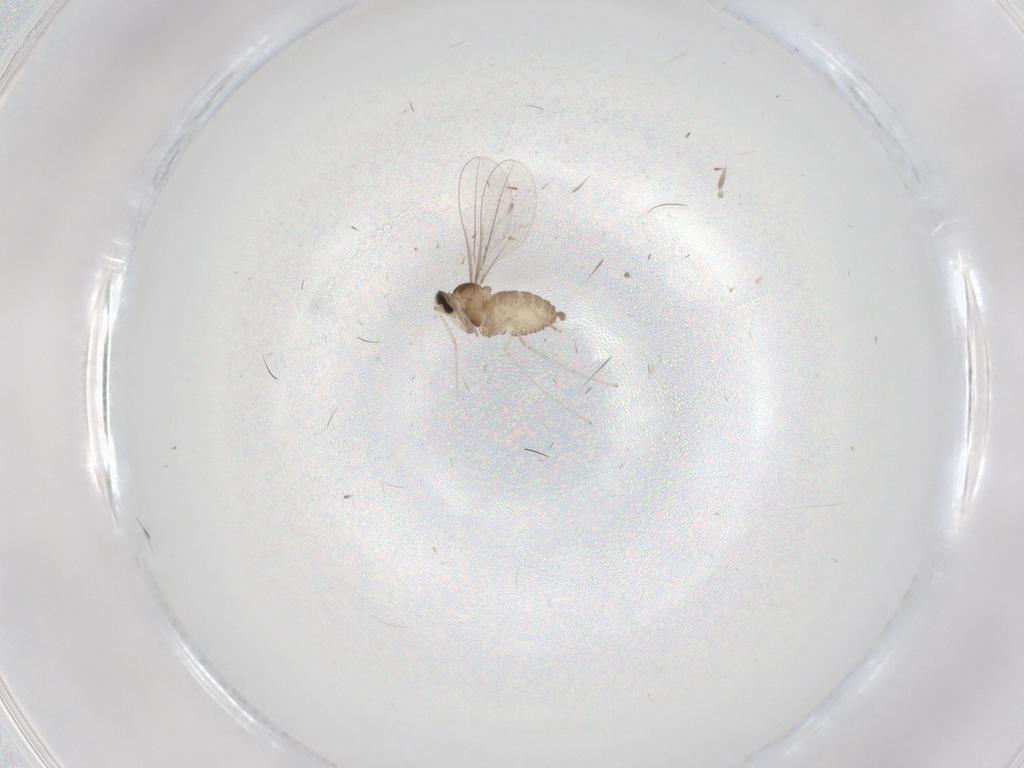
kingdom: Animalia
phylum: Arthropoda
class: Insecta
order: Diptera
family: Cecidomyiidae
